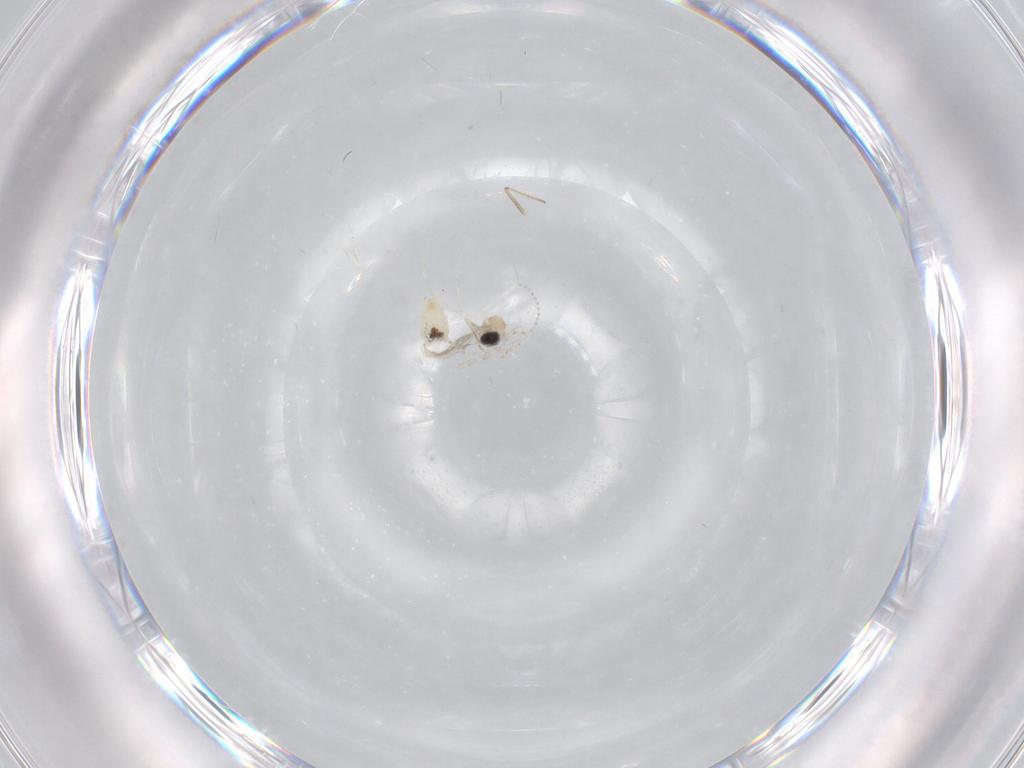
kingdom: Animalia
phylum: Arthropoda
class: Insecta
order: Diptera
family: Cecidomyiidae
